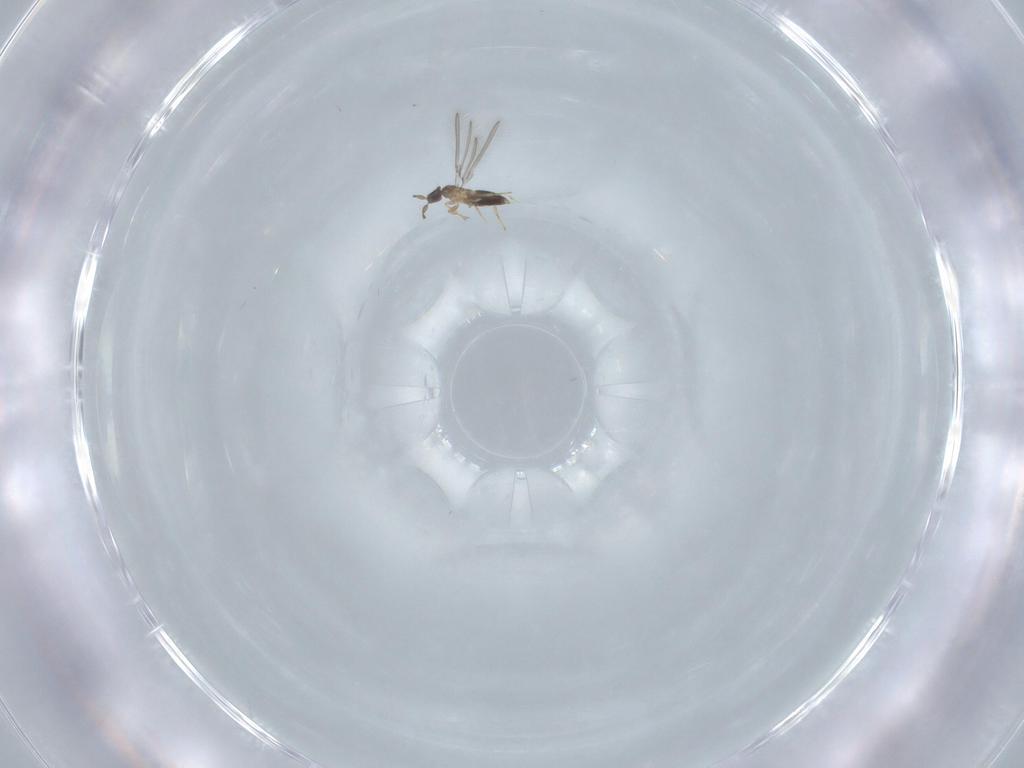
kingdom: Animalia
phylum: Arthropoda
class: Insecta
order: Hymenoptera
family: Mymaridae
